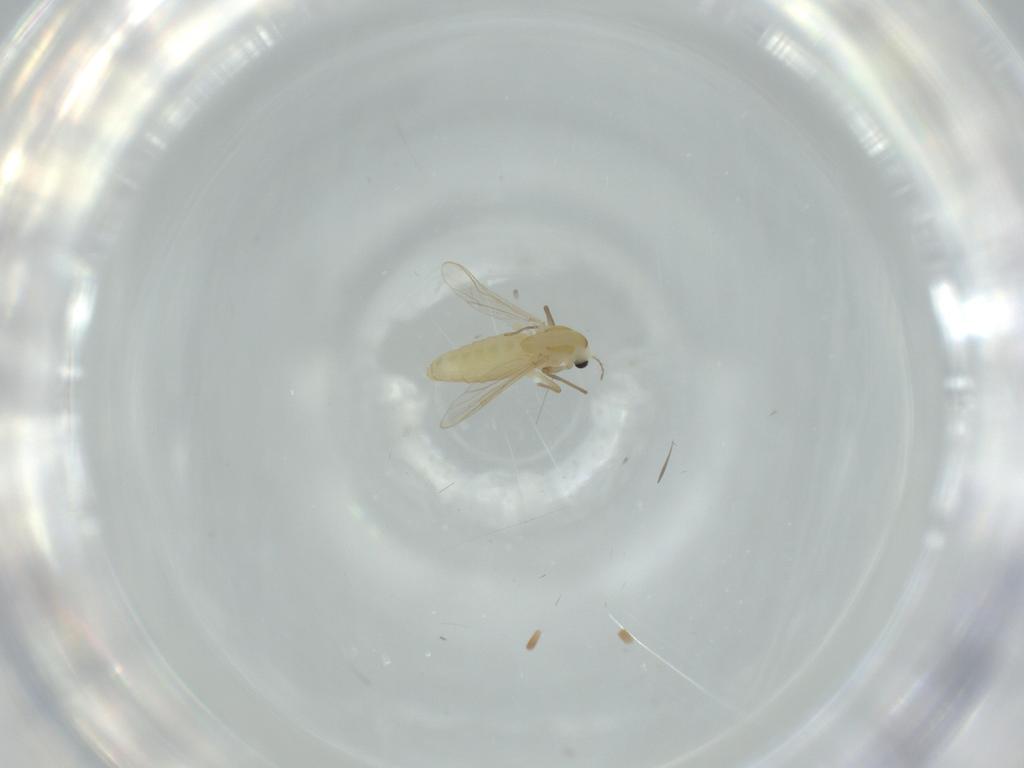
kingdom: Animalia
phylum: Arthropoda
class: Insecta
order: Diptera
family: Chironomidae
